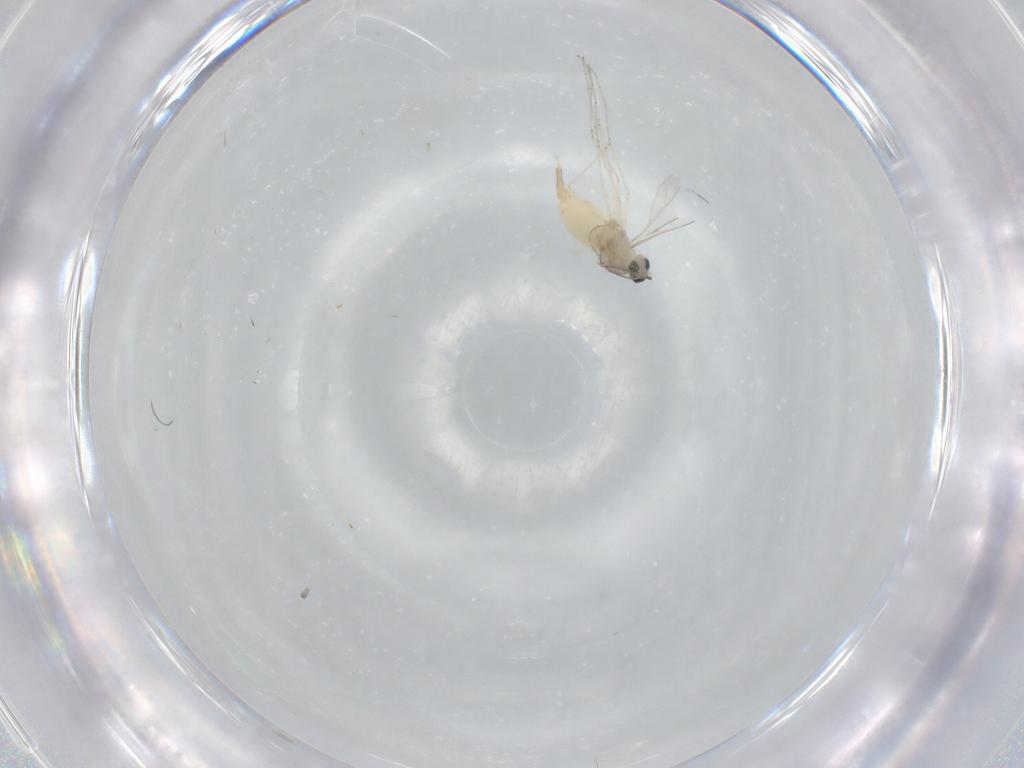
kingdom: Animalia
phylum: Arthropoda
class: Insecta
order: Diptera
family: Cecidomyiidae
